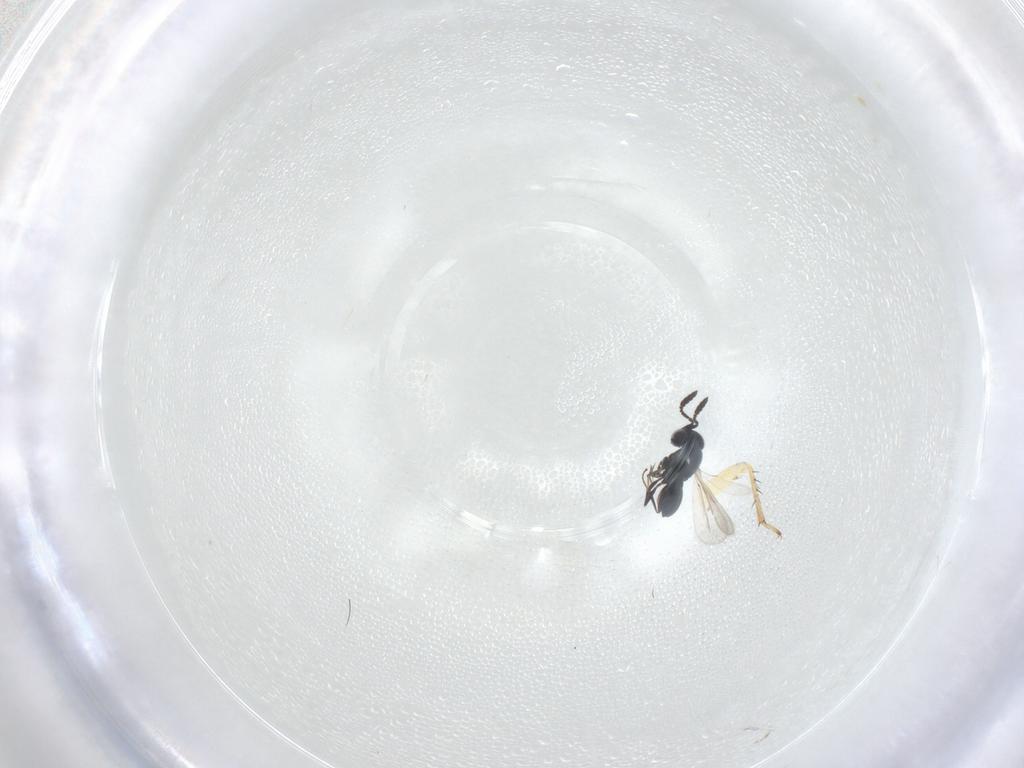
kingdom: Animalia
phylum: Arthropoda
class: Insecta
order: Hymenoptera
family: Scelionidae
